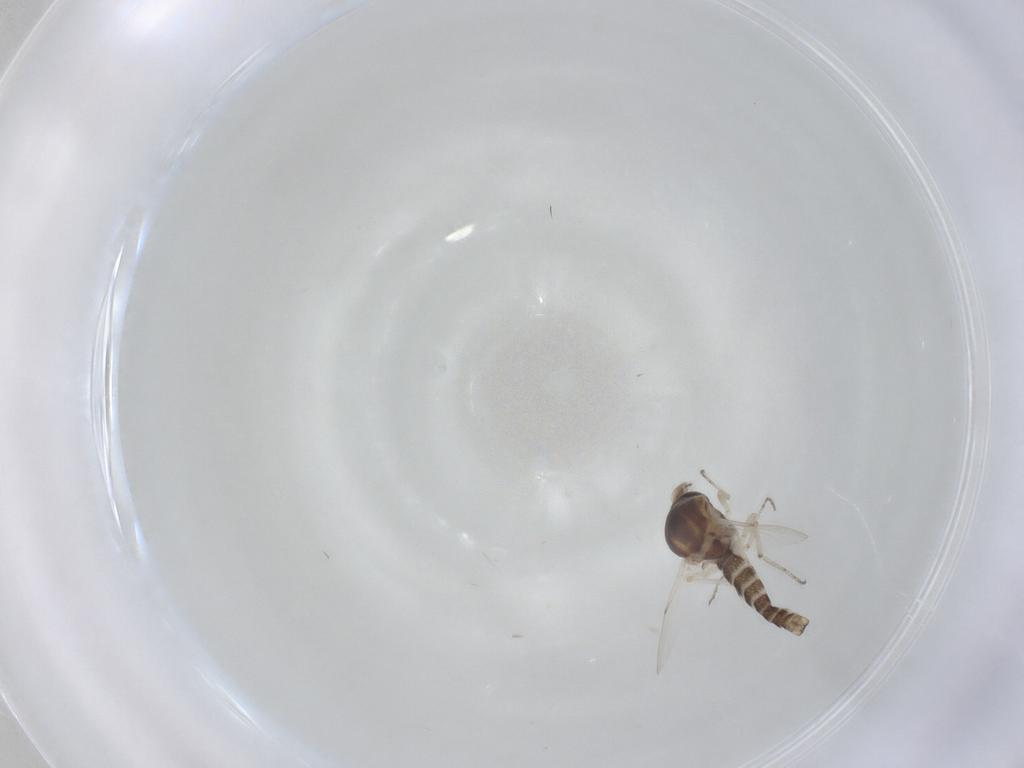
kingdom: Animalia
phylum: Arthropoda
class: Insecta
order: Diptera
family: Ceratopogonidae
